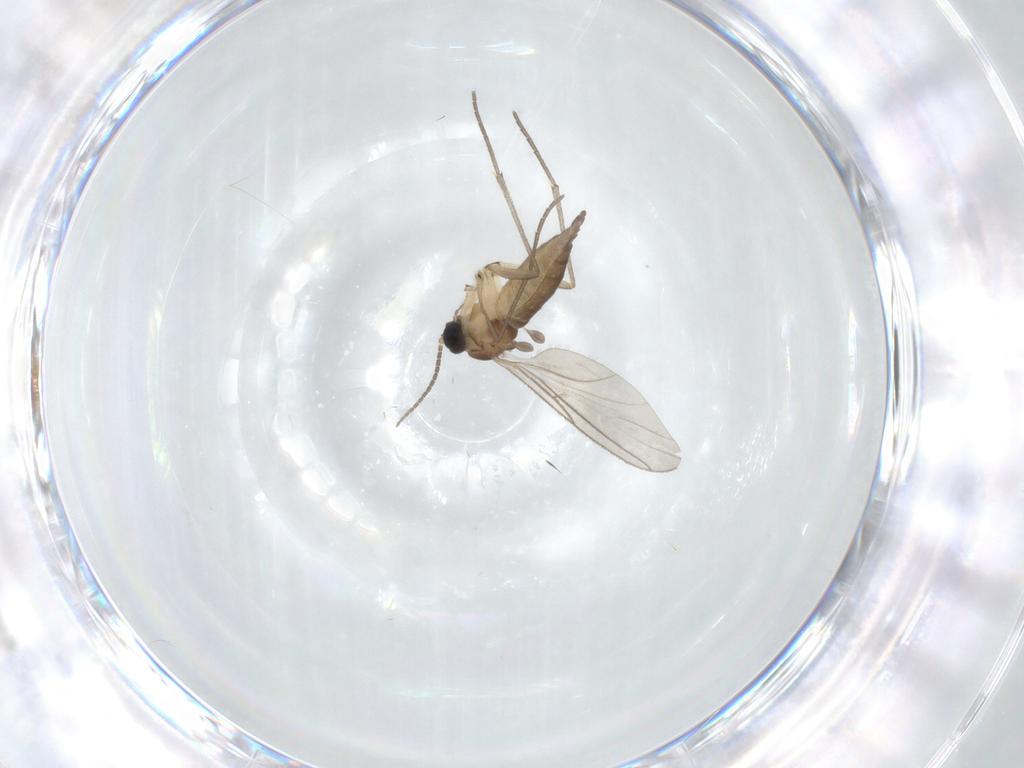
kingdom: Animalia
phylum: Arthropoda
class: Insecta
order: Diptera
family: Sciaridae
